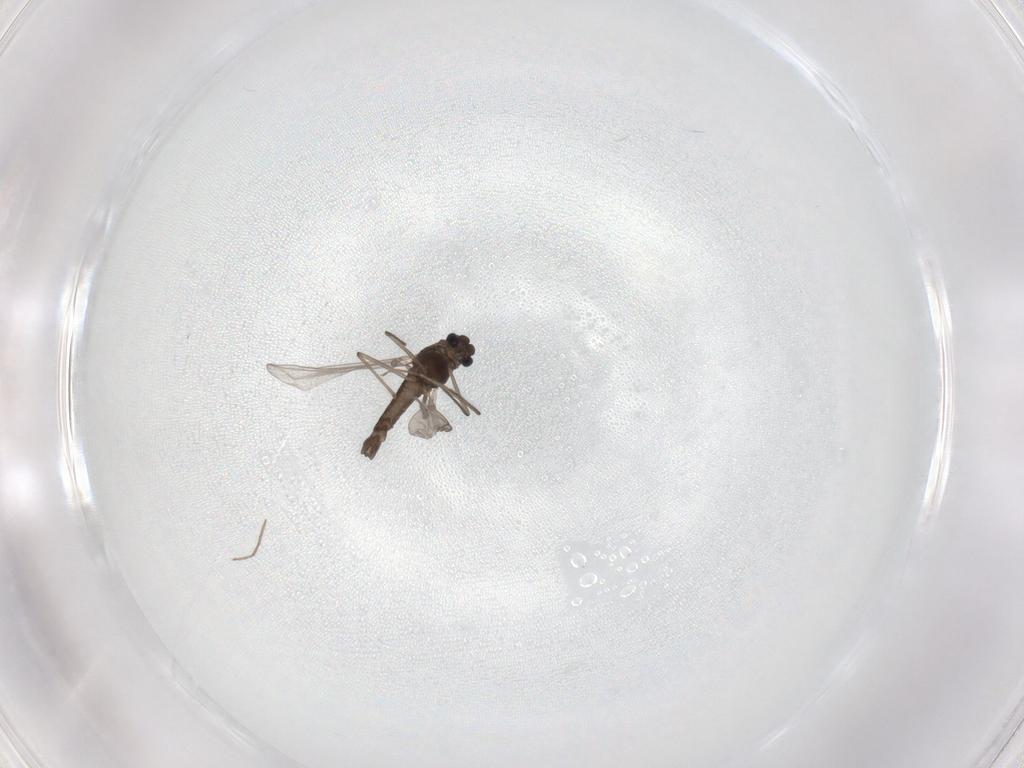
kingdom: Animalia
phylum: Arthropoda
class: Insecta
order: Diptera
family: Chironomidae
